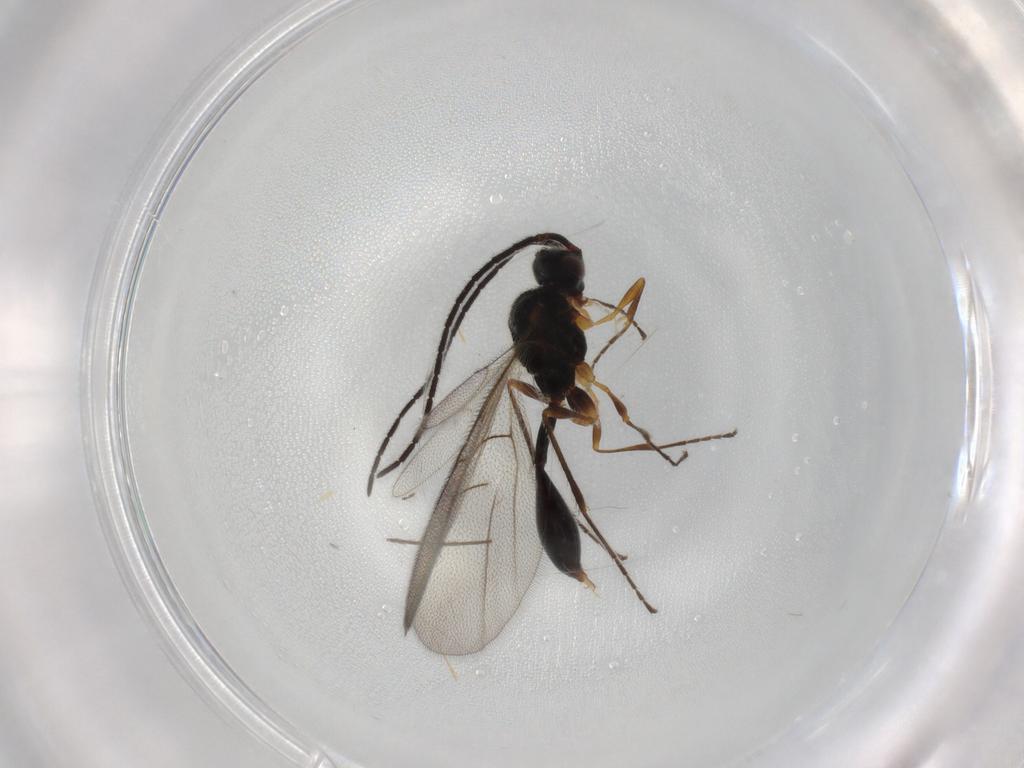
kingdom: Animalia
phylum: Arthropoda
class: Insecta
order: Hymenoptera
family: Diapriidae
